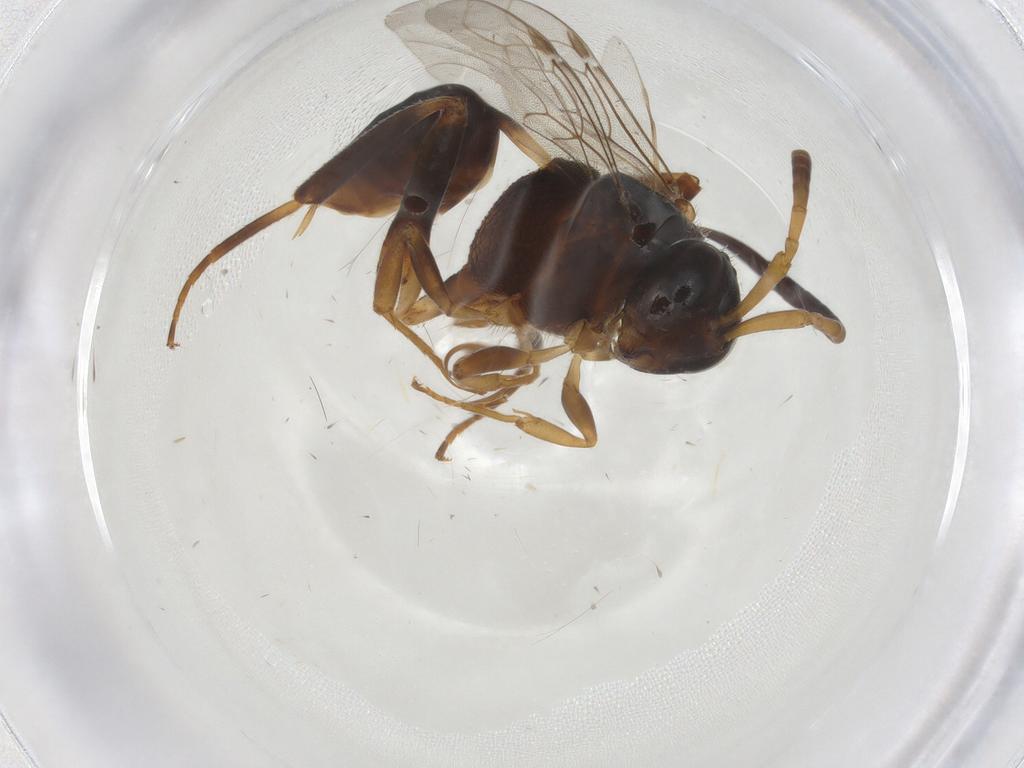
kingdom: Animalia
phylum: Arthropoda
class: Insecta
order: Hymenoptera
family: Evaniidae
